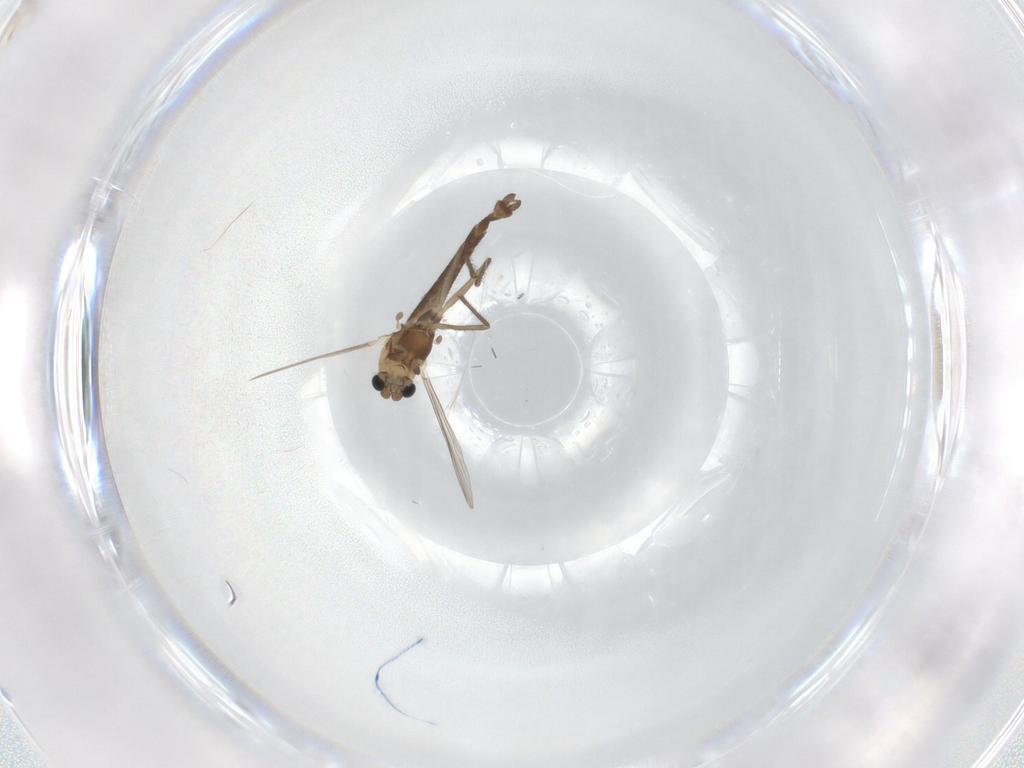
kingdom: Animalia
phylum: Arthropoda
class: Insecta
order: Diptera
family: Chironomidae
